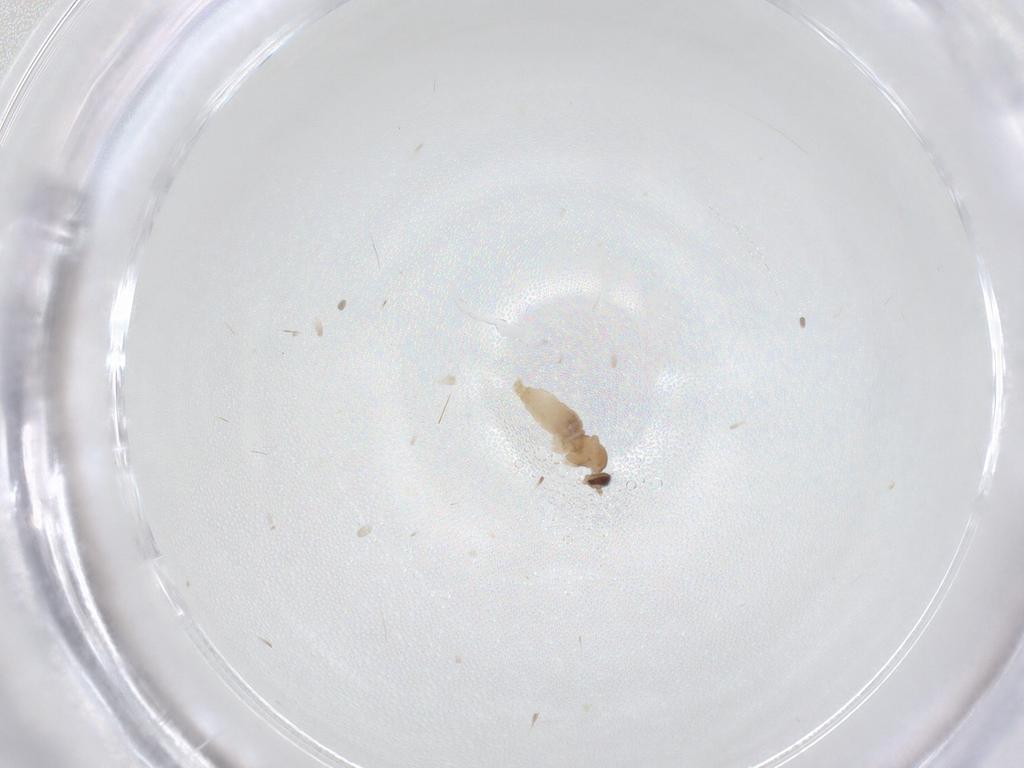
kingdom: Animalia
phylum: Arthropoda
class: Insecta
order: Diptera
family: Cecidomyiidae
